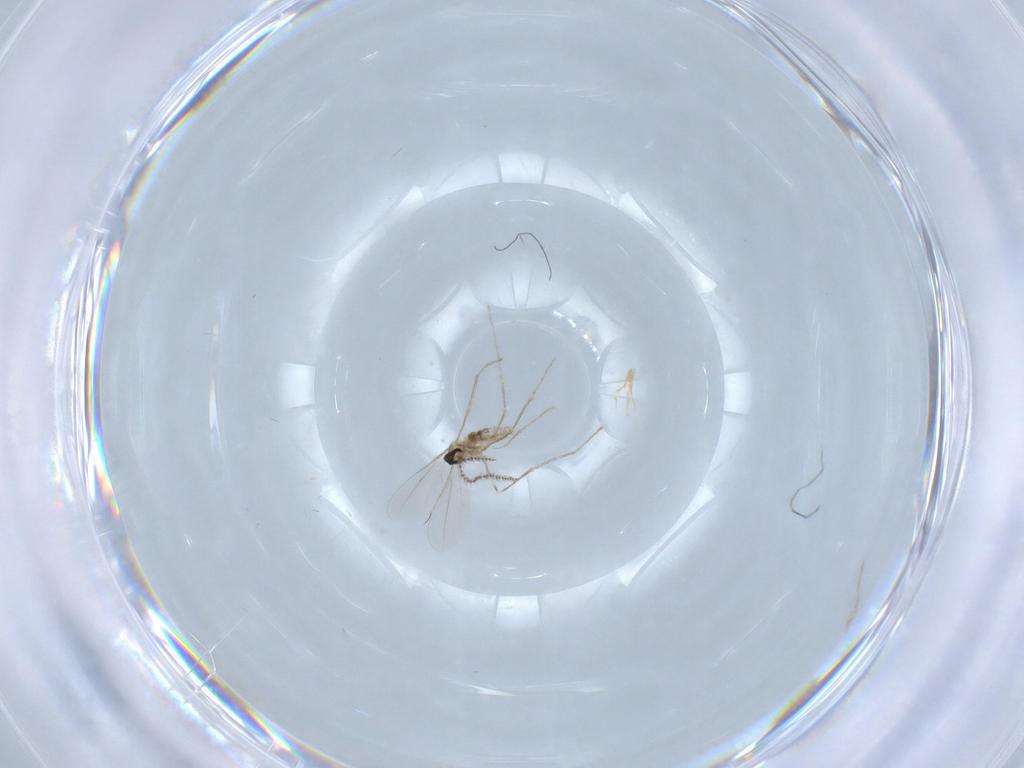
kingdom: Animalia
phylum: Arthropoda
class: Insecta
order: Diptera
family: Cecidomyiidae
